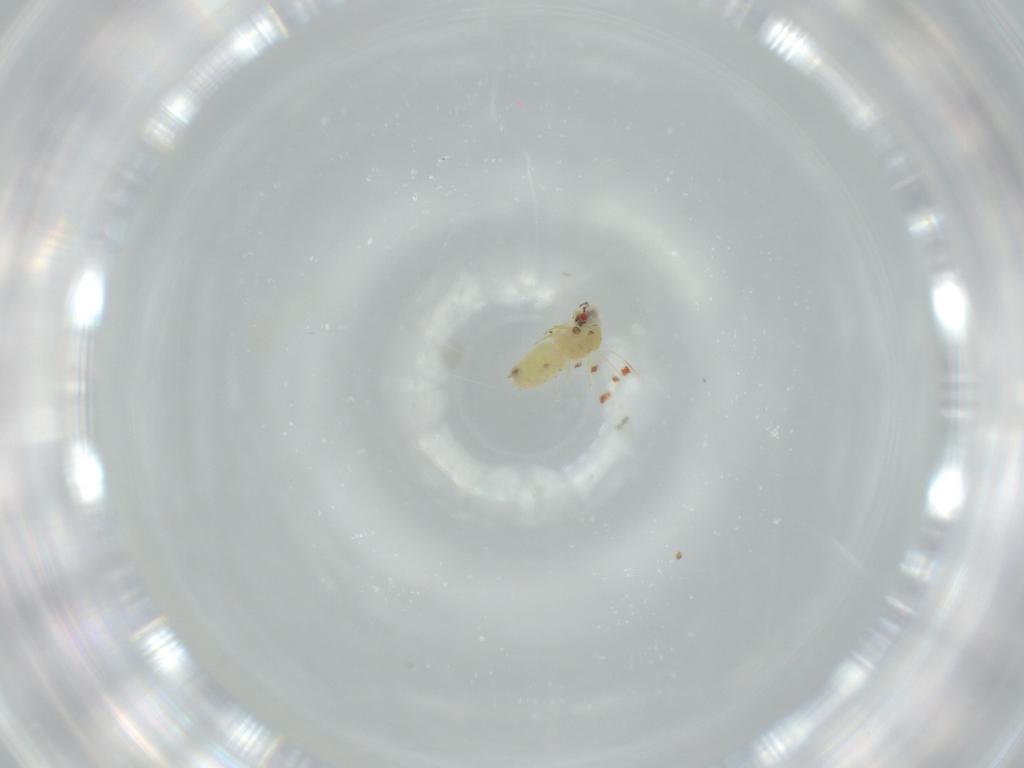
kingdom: Animalia
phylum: Arthropoda
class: Insecta
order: Hemiptera
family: Aleyrodidae
